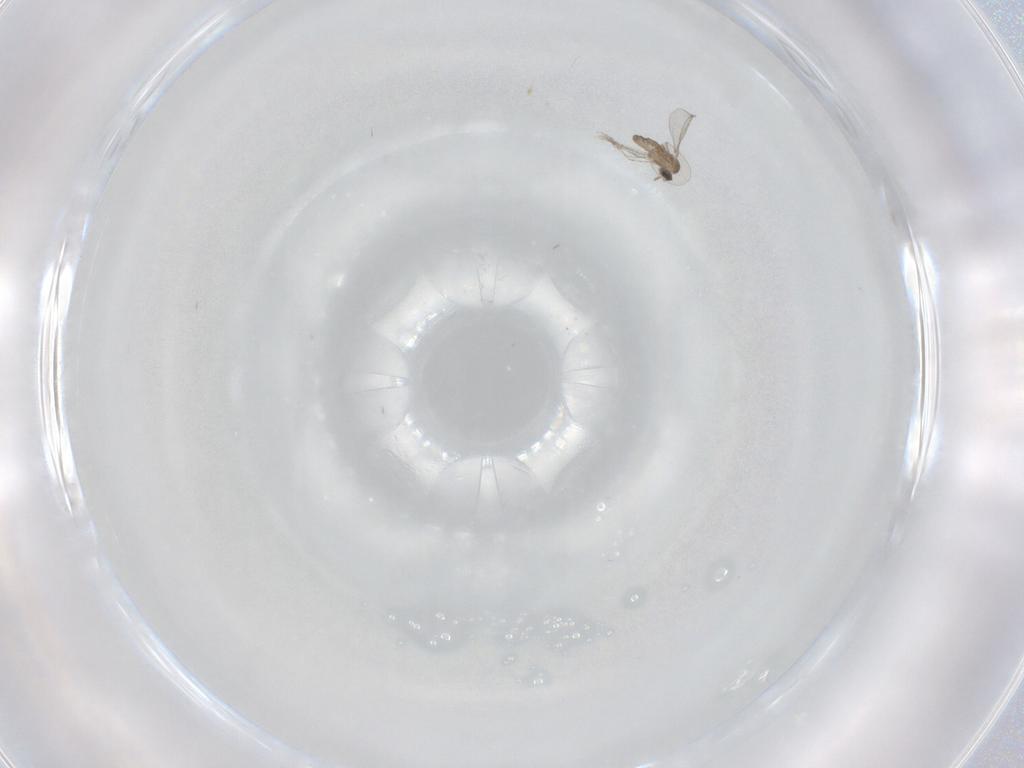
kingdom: Animalia
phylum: Arthropoda
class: Insecta
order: Diptera
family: Cecidomyiidae
